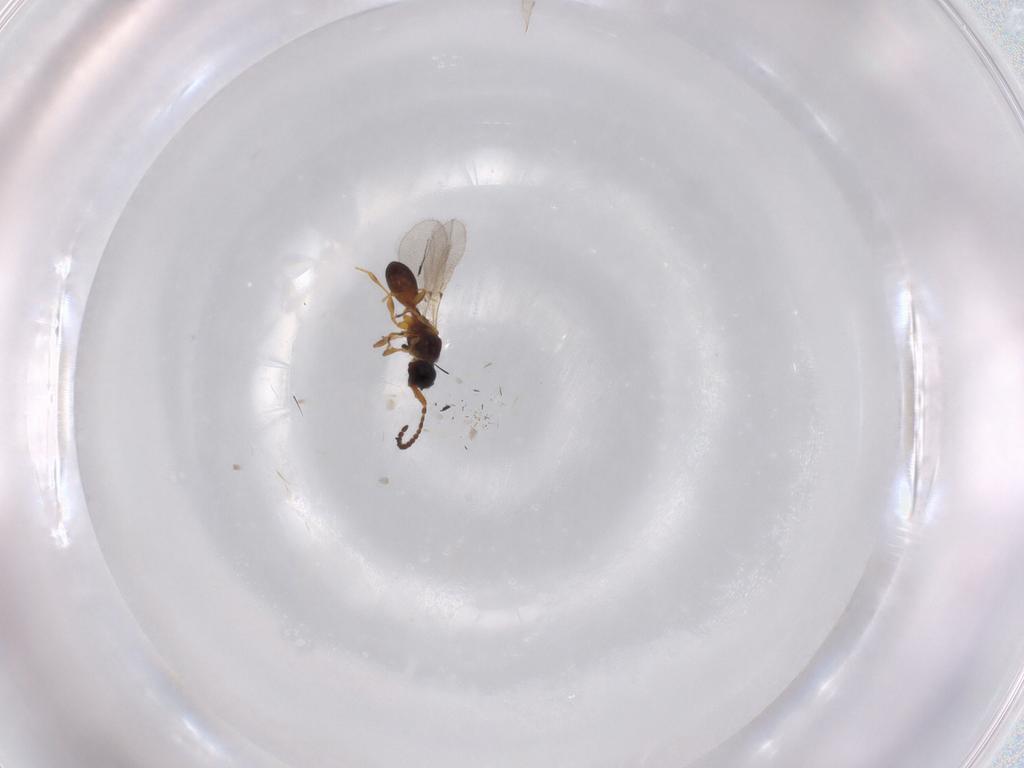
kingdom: Animalia
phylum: Arthropoda
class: Insecta
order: Hymenoptera
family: Diapriidae
